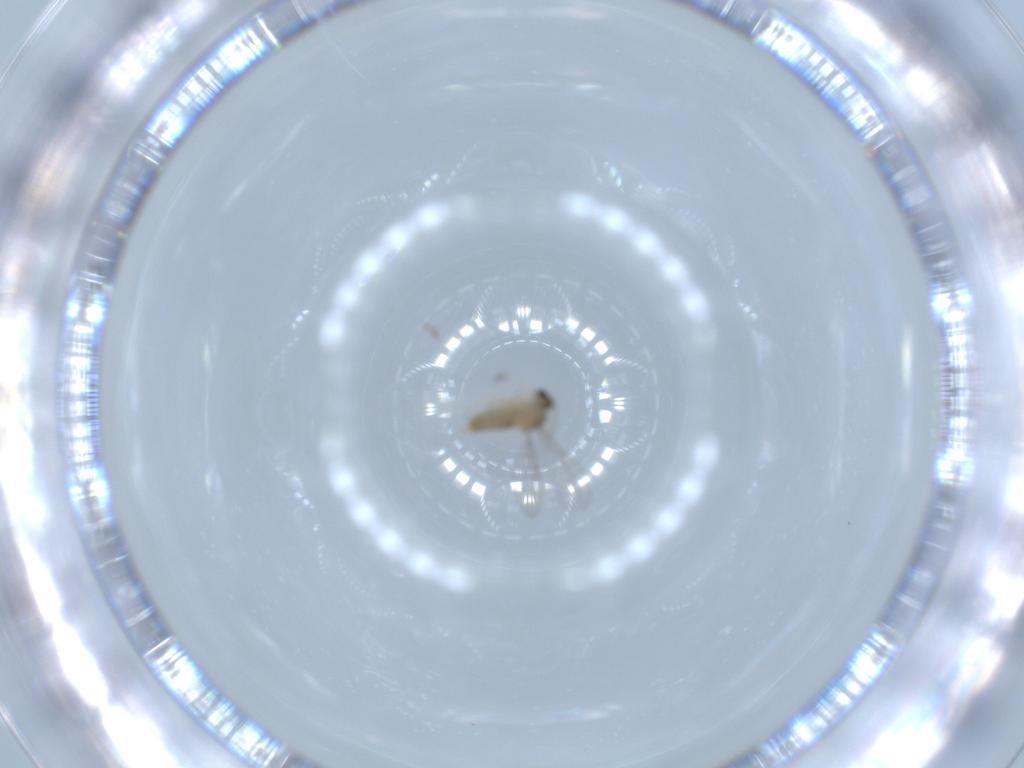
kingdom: Animalia
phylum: Arthropoda
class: Insecta
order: Diptera
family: Cecidomyiidae
